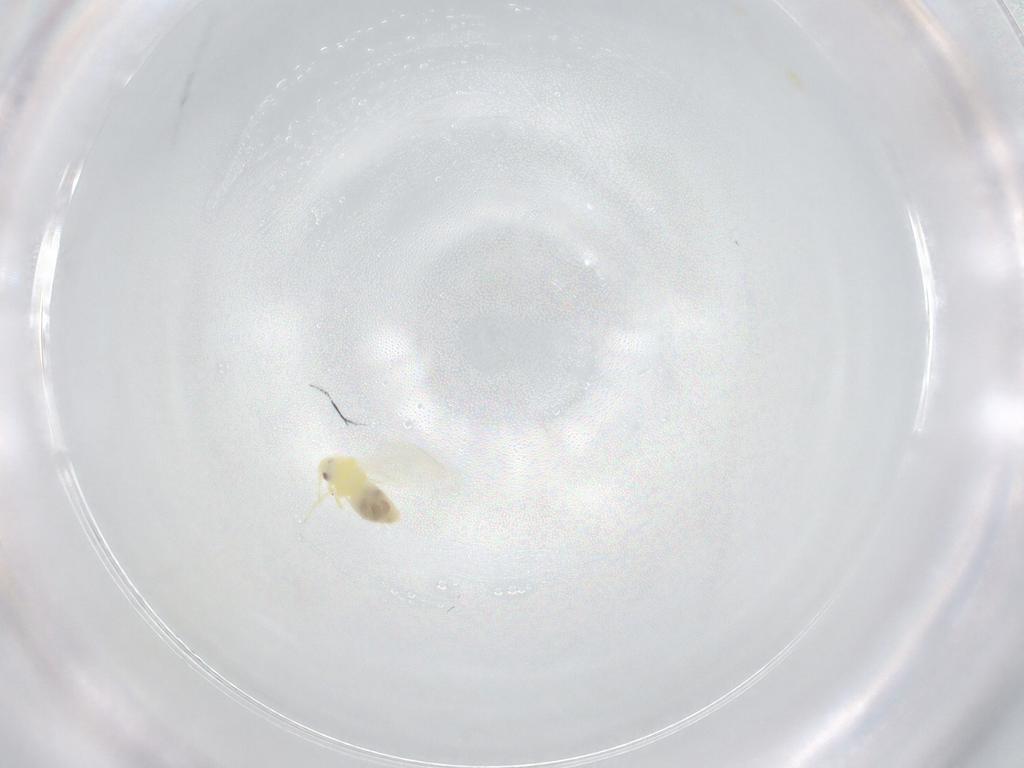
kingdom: Animalia
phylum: Arthropoda
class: Insecta
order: Hemiptera
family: Aleyrodidae
